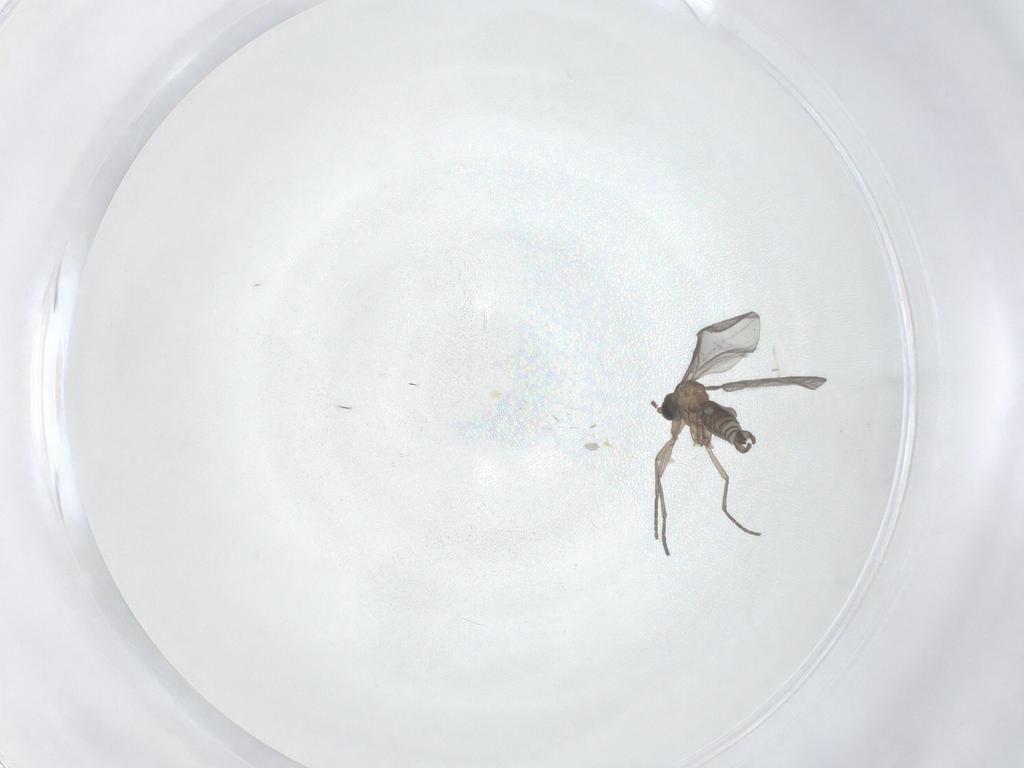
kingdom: Animalia
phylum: Arthropoda
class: Insecta
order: Diptera
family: Sciaridae
